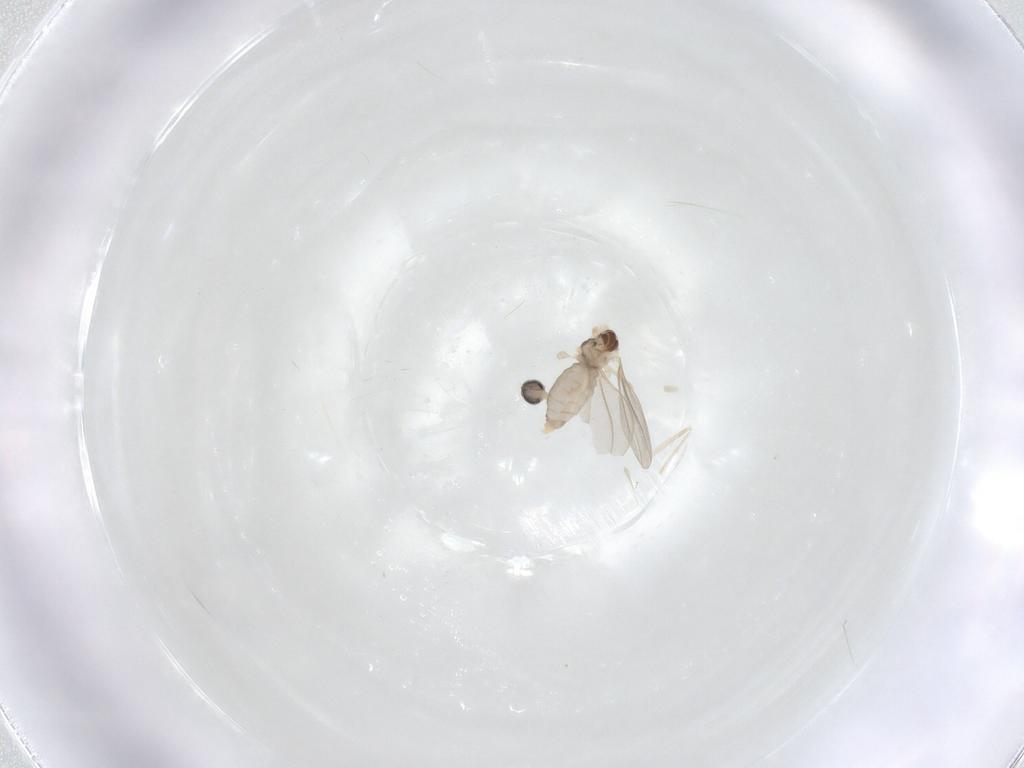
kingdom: Animalia
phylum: Arthropoda
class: Insecta
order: Diptera
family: Cecidomyiidae
